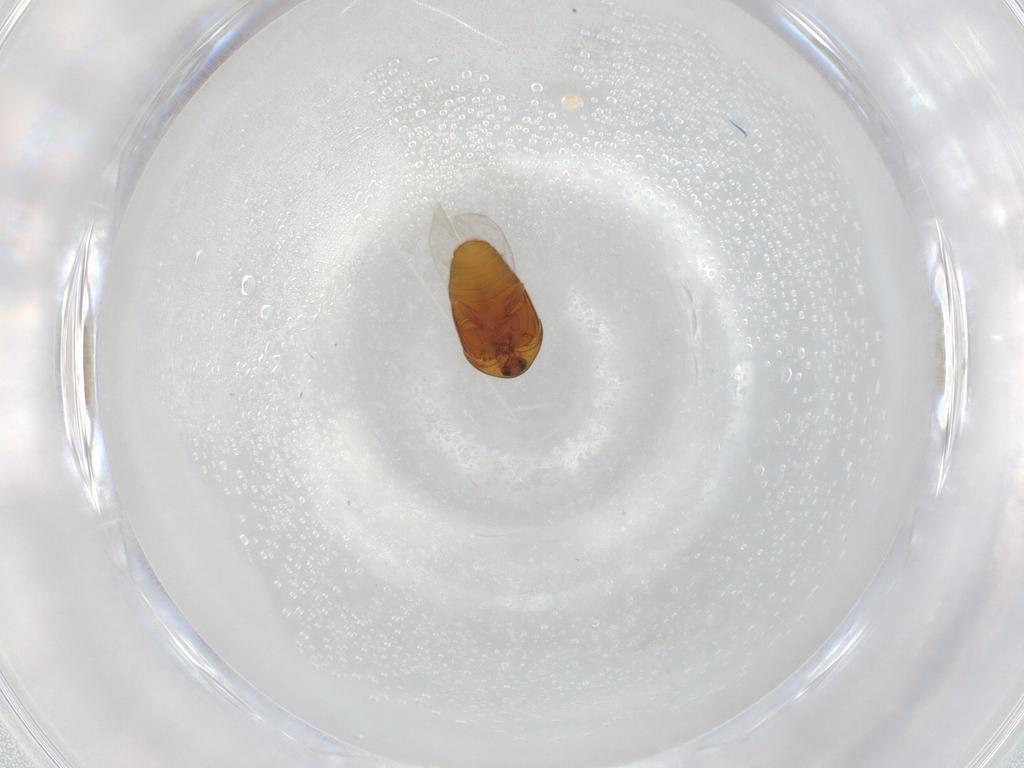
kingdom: Animalia
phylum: Arthropoda
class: Insecta
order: Coleoptera
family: Corylophidae
